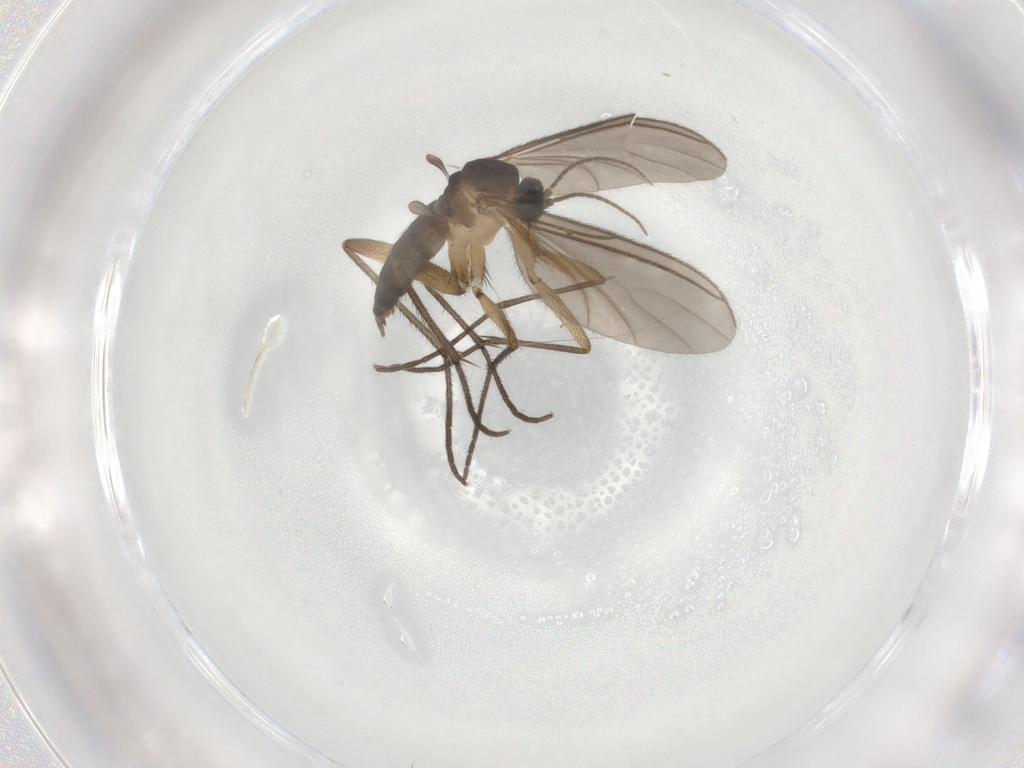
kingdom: Animalia
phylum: Arthropoda
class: Insecta
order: Diptera
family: Sciaridae
